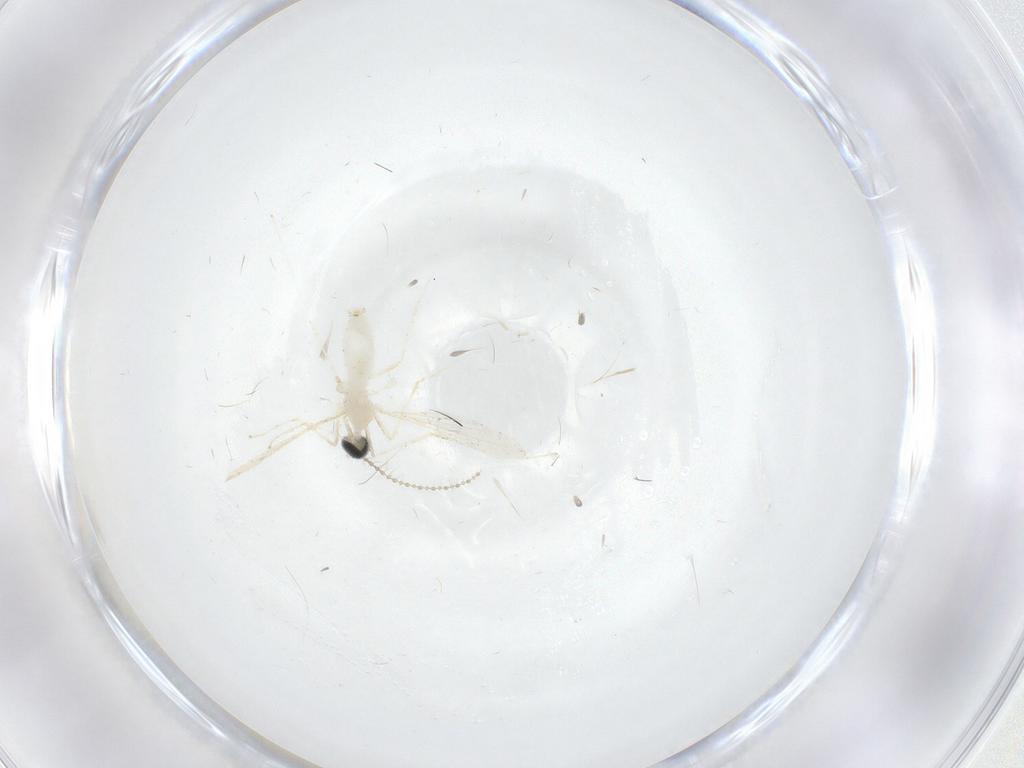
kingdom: Animalia
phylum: Arthropoda
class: Insecta
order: Diptera
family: Cecidomyiidae
